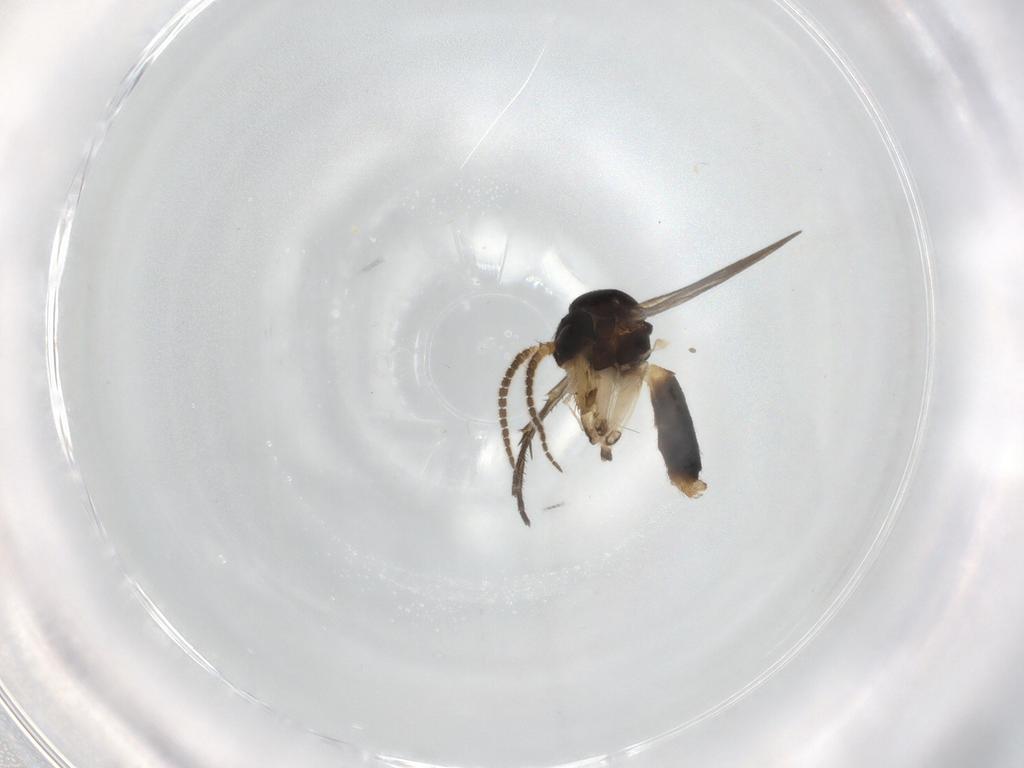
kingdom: Animalia
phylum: Arthropoda
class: Insecta
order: Diptera
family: Mycetophilidae
